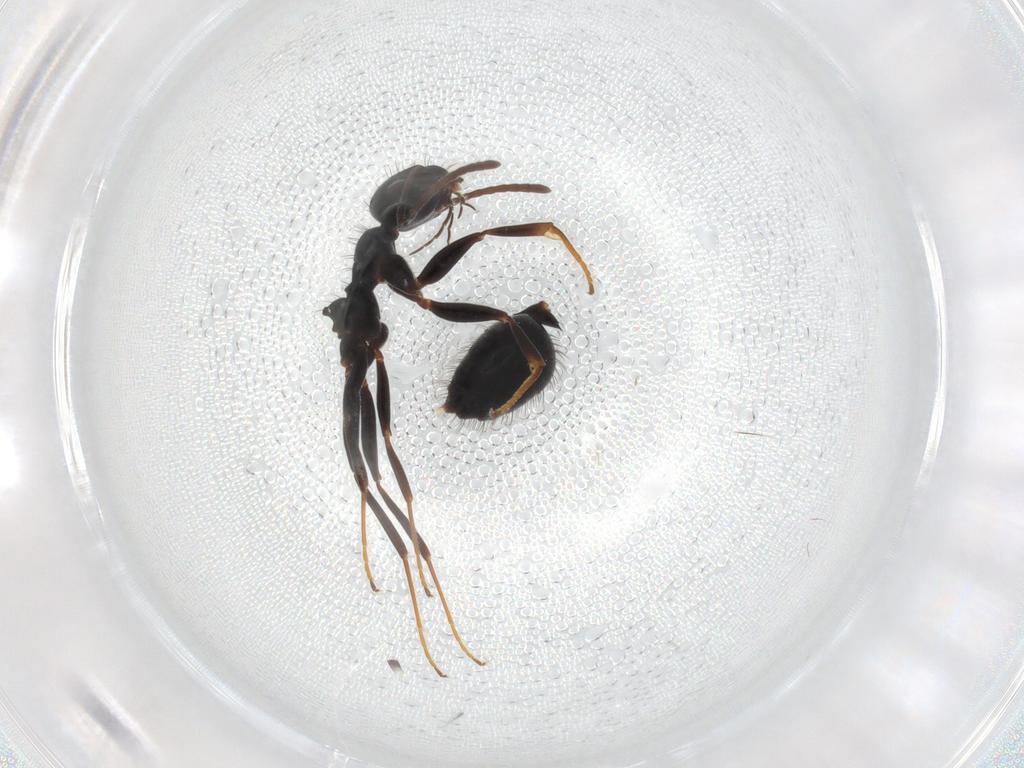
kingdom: Animalia
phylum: Arthropoda
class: Insecta
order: Hymenoptera
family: Formicidae
